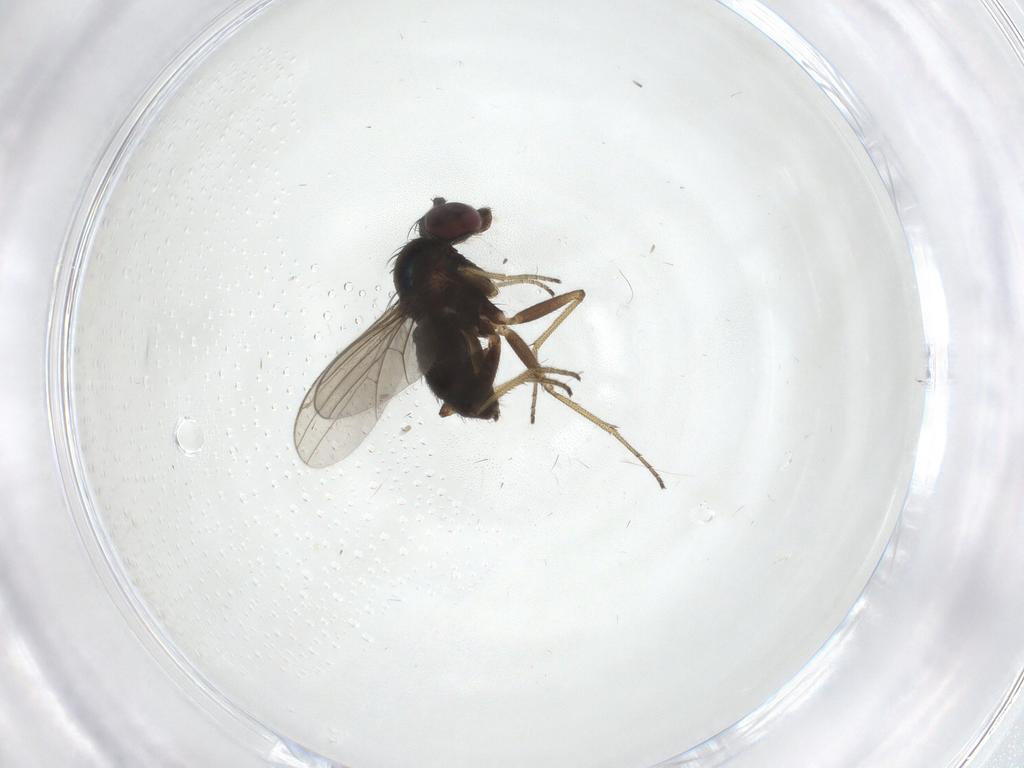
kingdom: Animalia
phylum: Arthropoda
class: Insecta
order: Diptera
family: Dolichopodidae
